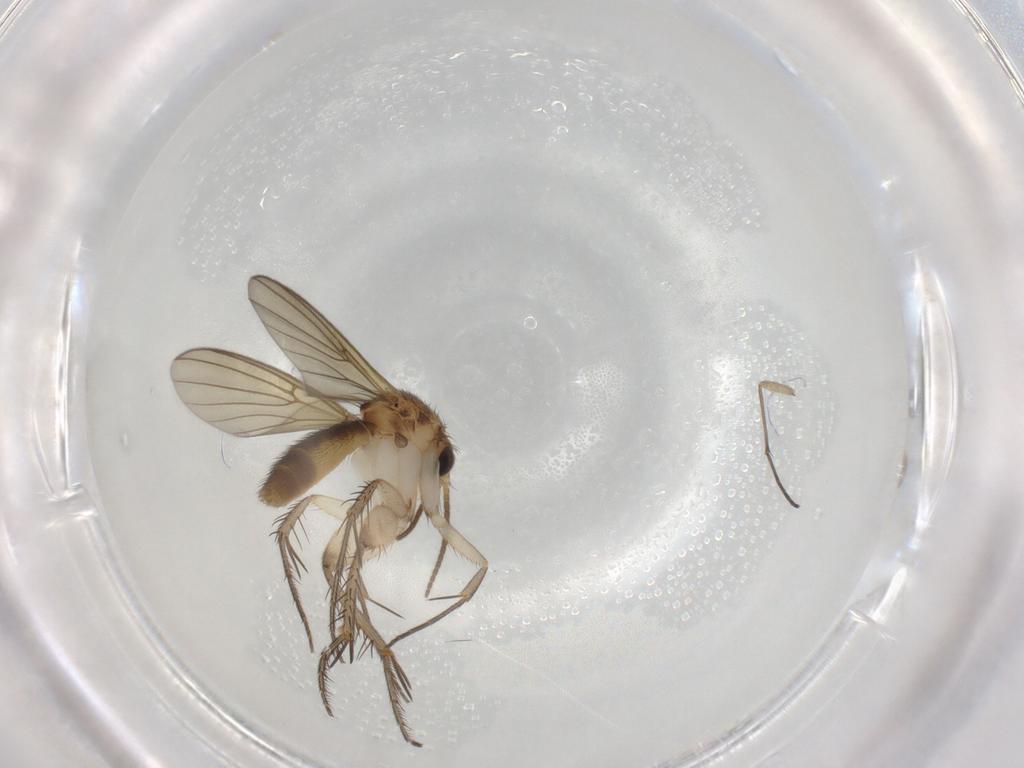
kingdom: Animalia
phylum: Arthropoda
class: Insecta
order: Diptera
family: Mycetophilidae
